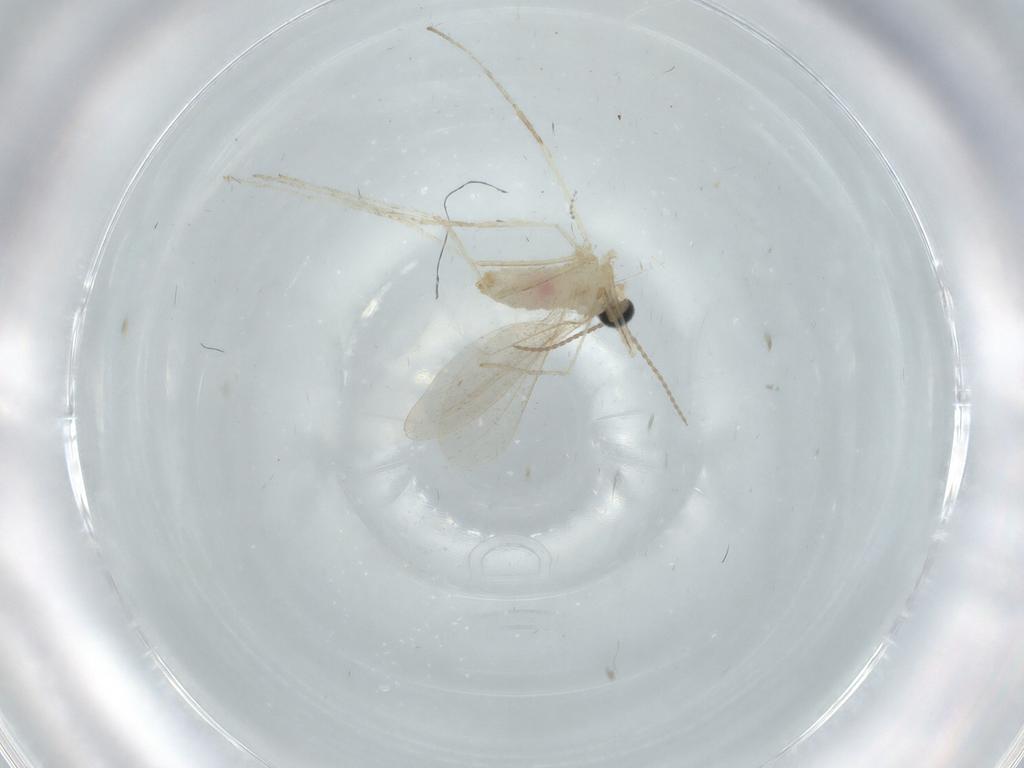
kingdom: Animalia
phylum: Arthropoda
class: Insecta
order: Diptera
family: Cecidomyiidae
